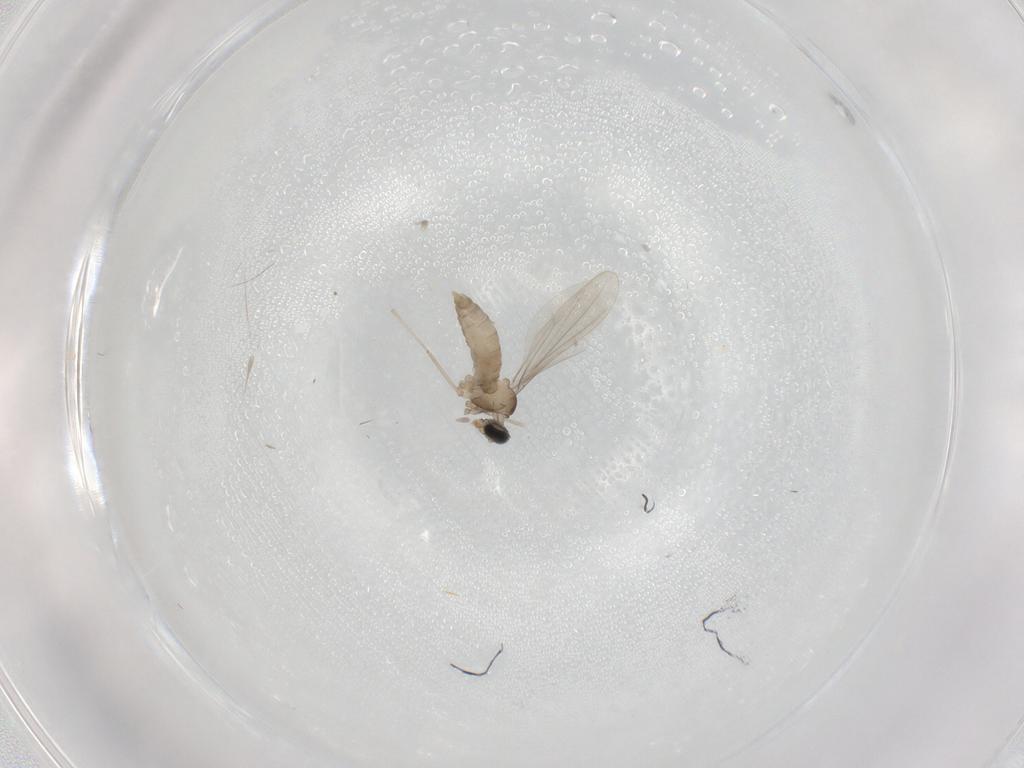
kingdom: Animalia
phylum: Arthropoda
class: Insecta
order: Diptera
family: Cecidomyiidae
